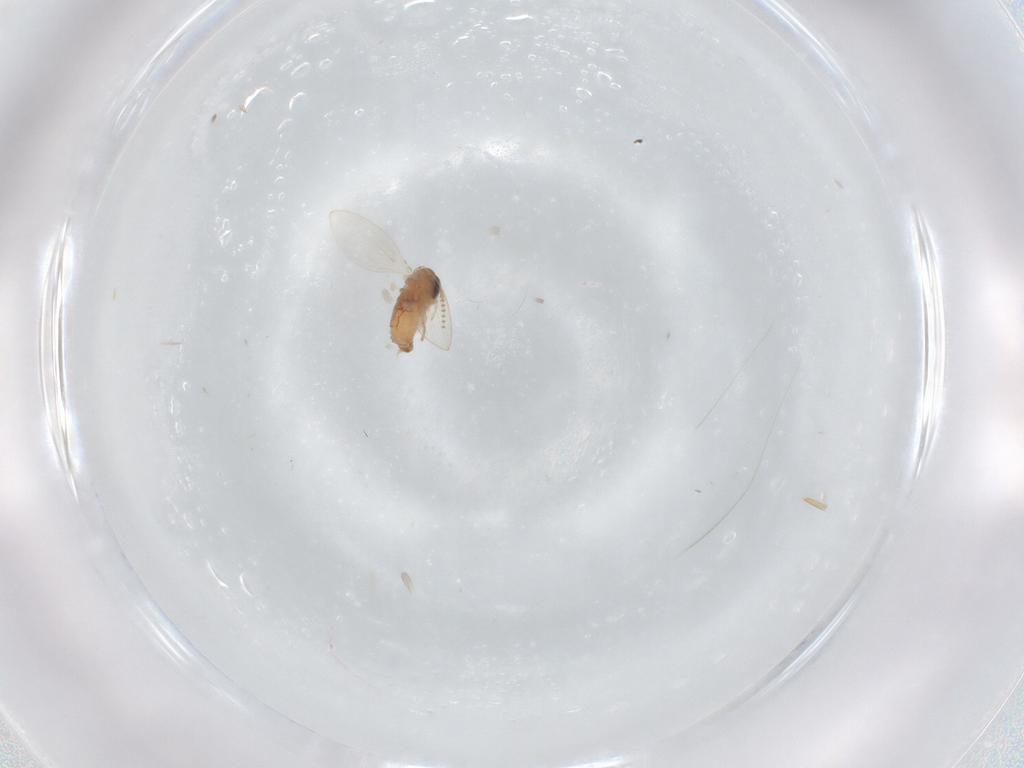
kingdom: Animalia
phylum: Arthropoda
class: Insecta
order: Diptera
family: Psychodidae
